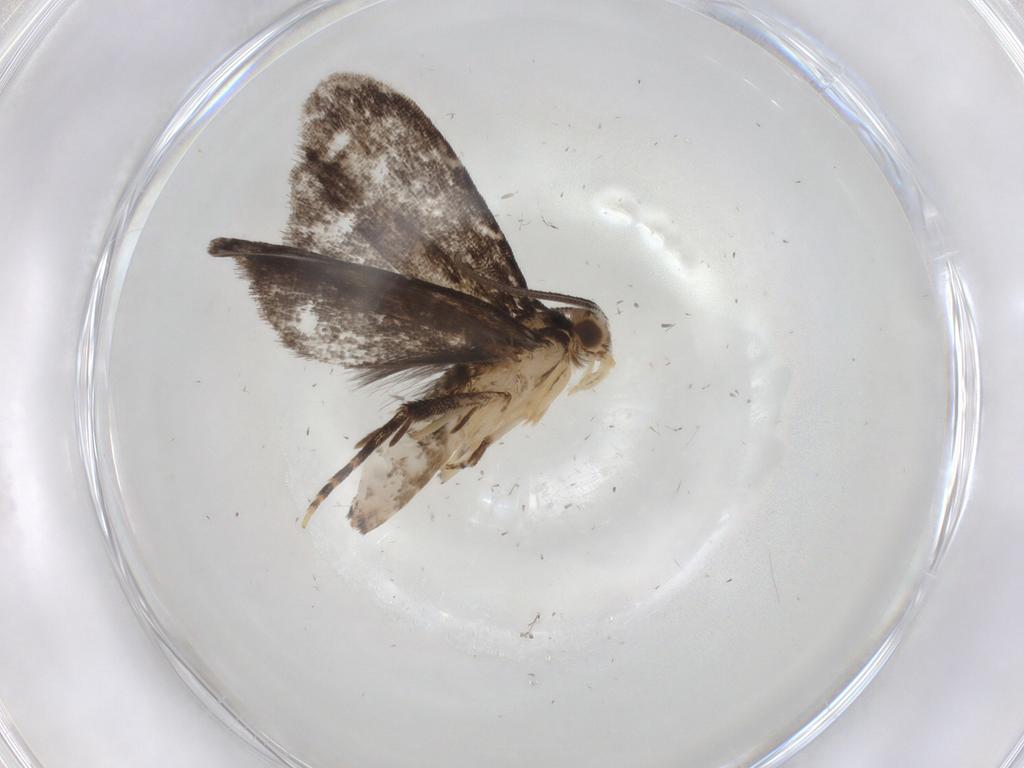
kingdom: Animalia
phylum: Arthropoda
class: Insecta
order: Lepidoptera
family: Dryadaulidae
